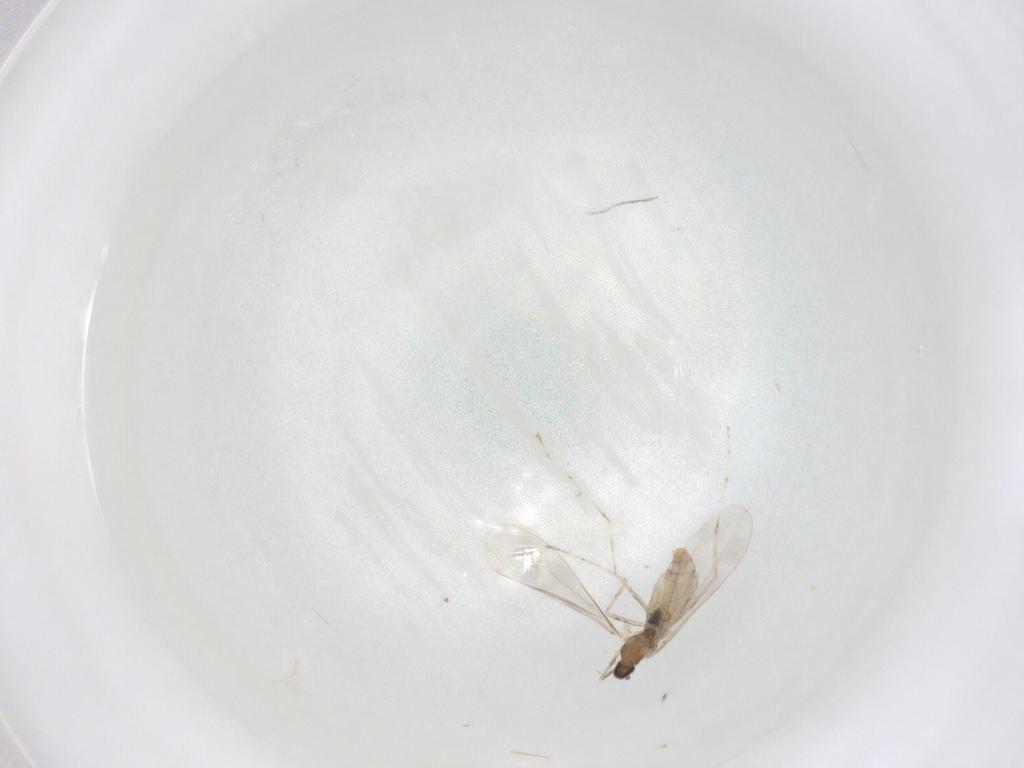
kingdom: Animalia
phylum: Arthropoda
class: Insecta
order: Diptera
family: Cecidomyiidae
